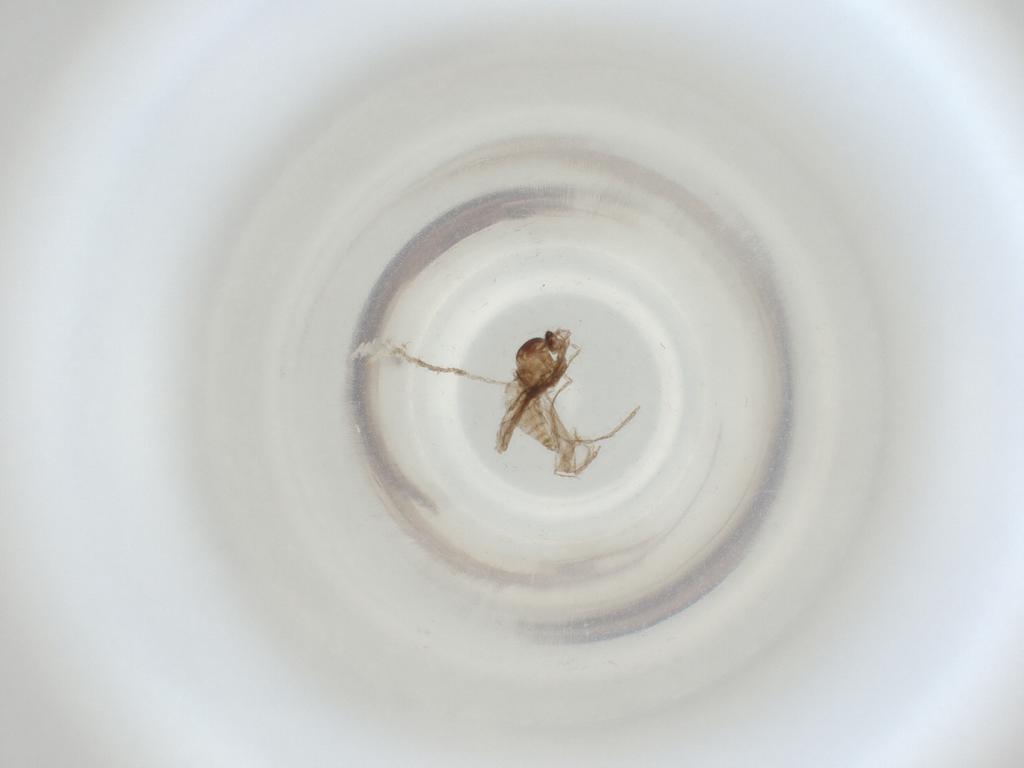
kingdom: Animalia
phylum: Arthropoda
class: Insecta
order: Diptera
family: Cecidomyiidae
